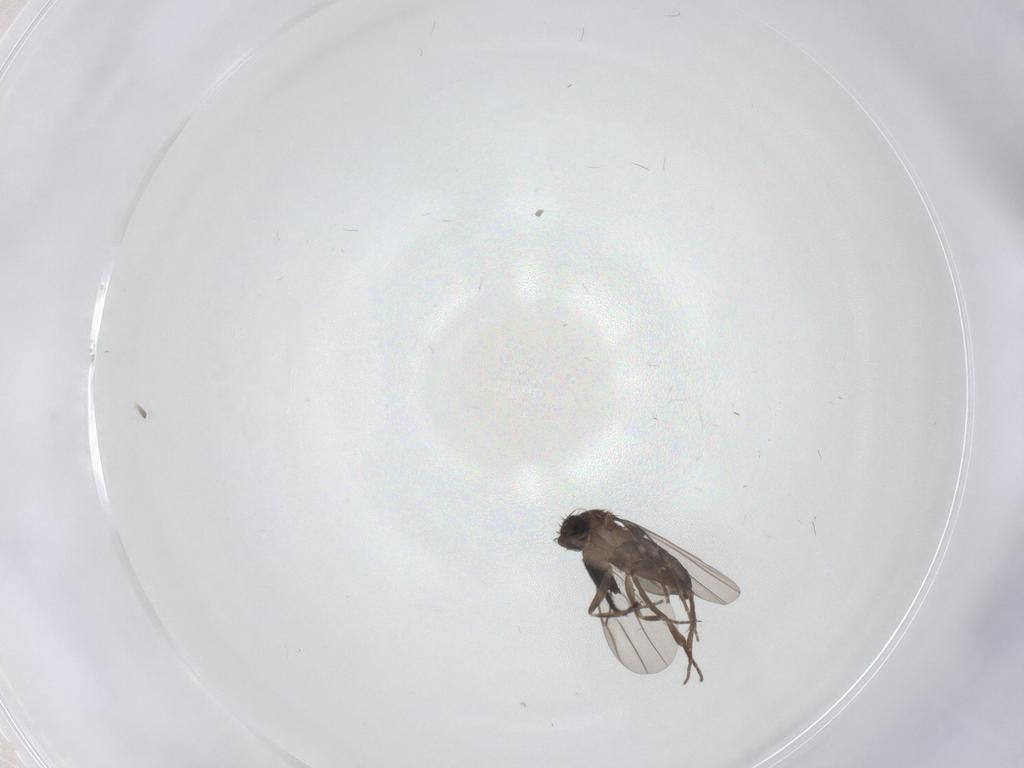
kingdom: Animalia
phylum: Arthropoda
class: Insecta
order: Diptera
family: Milichiidae
